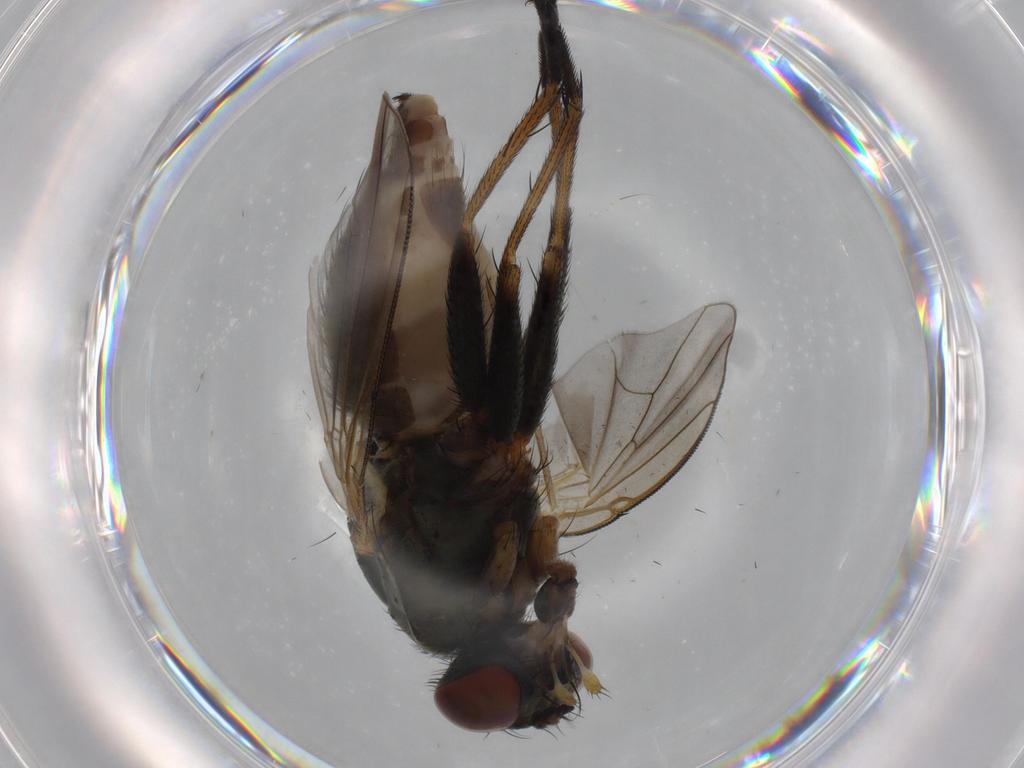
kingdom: Animalia
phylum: Arthropoda
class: Insecta
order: Diptera
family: Muscidae
